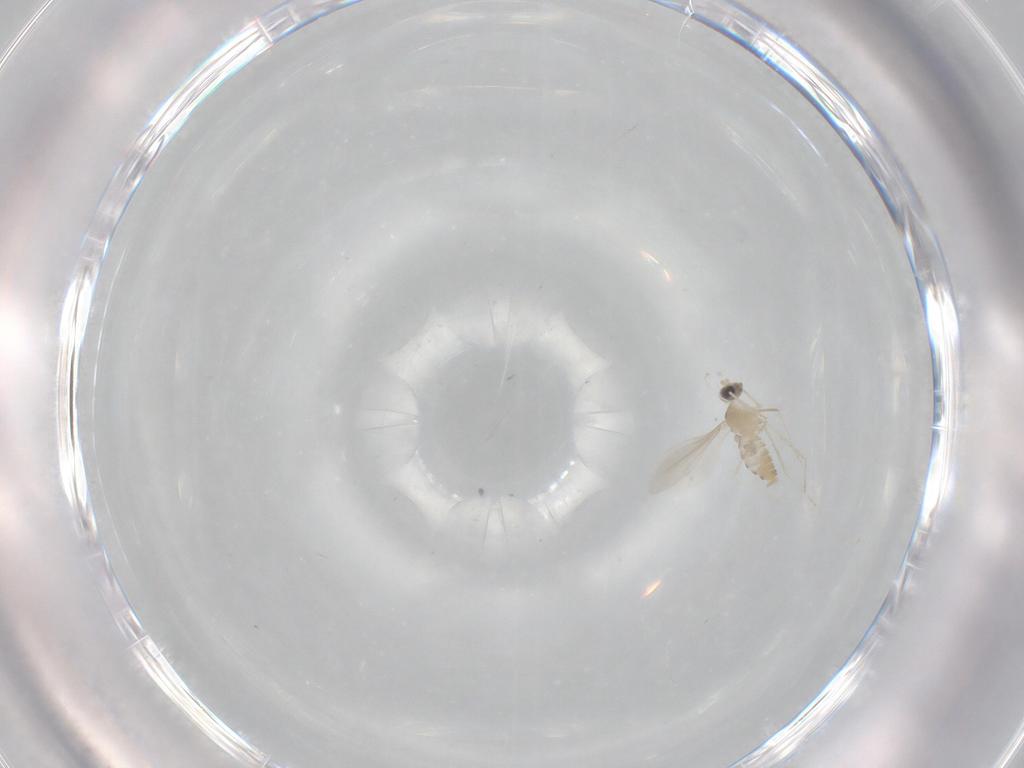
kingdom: Animalia
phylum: Arthropoda
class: Insecta
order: Diptera
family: Cecidomyiidae
